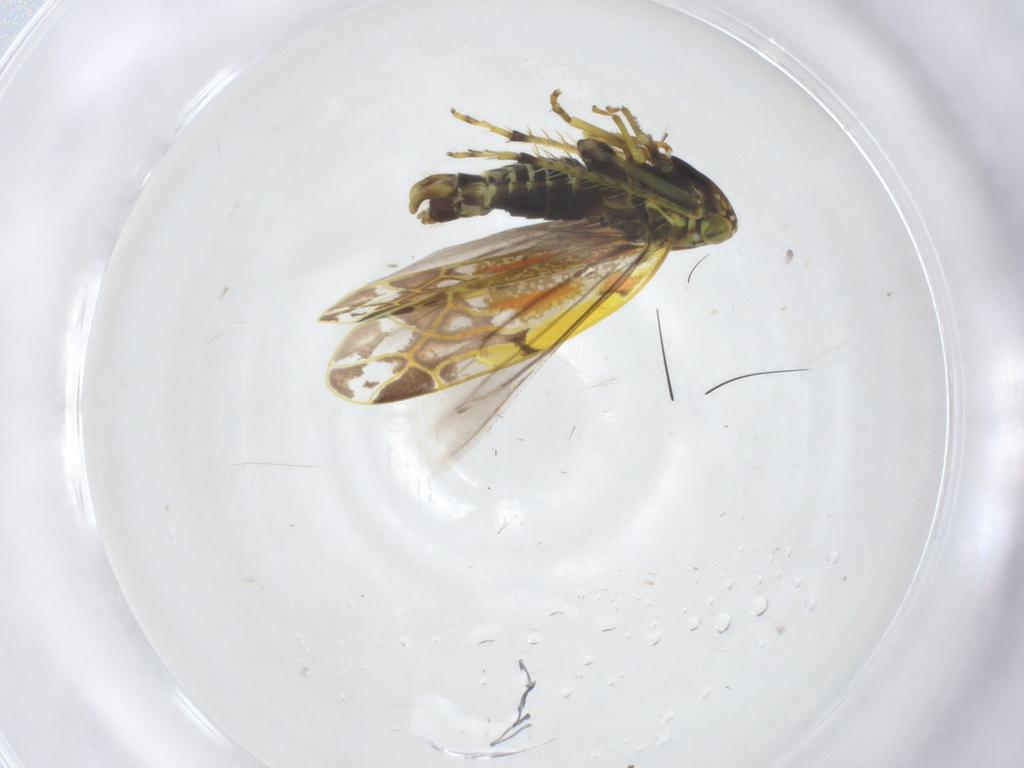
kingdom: Animalia
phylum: Arthropoda
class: Insecta
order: Hemiptera
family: Cicadellidae
